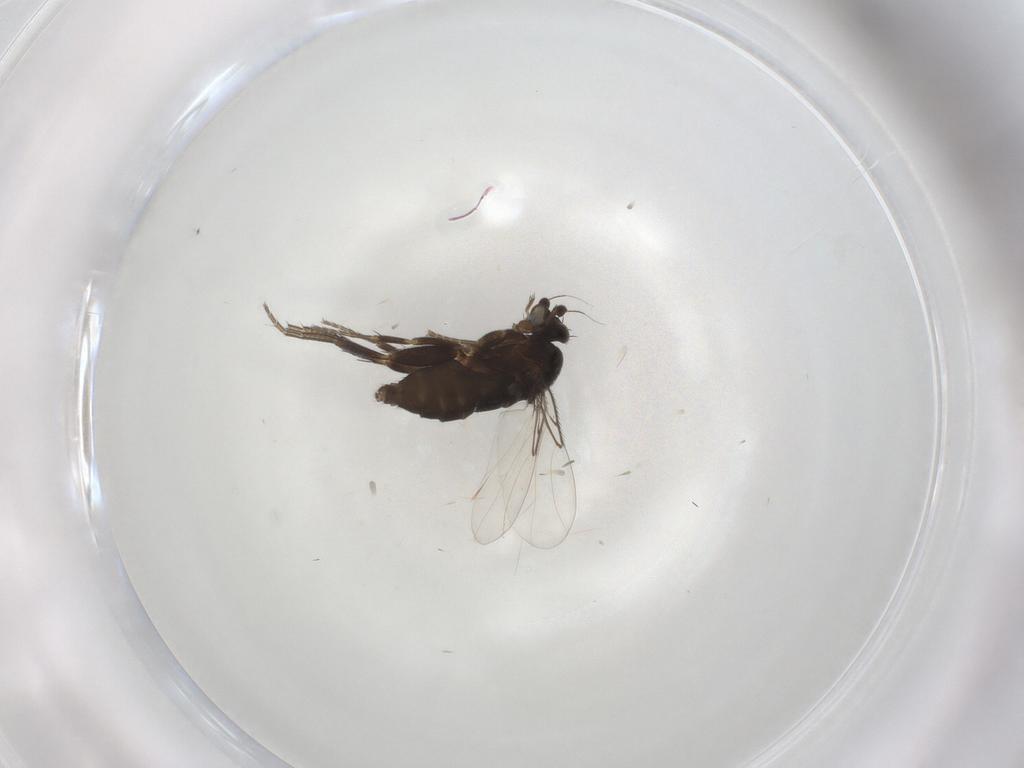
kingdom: Animalia
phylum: Arthropoda
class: Insecta
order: Diptera
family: Phoridae
